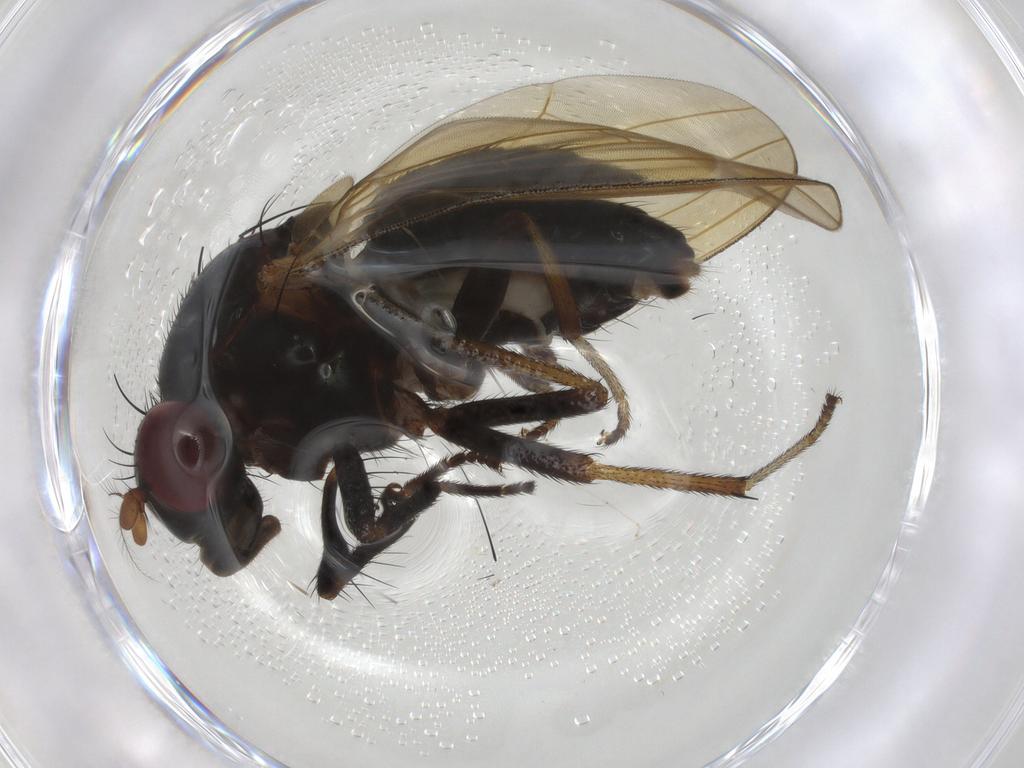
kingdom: Animalia
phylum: Arthropoda
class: Insecta
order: Diptera
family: Lauxaniidae
